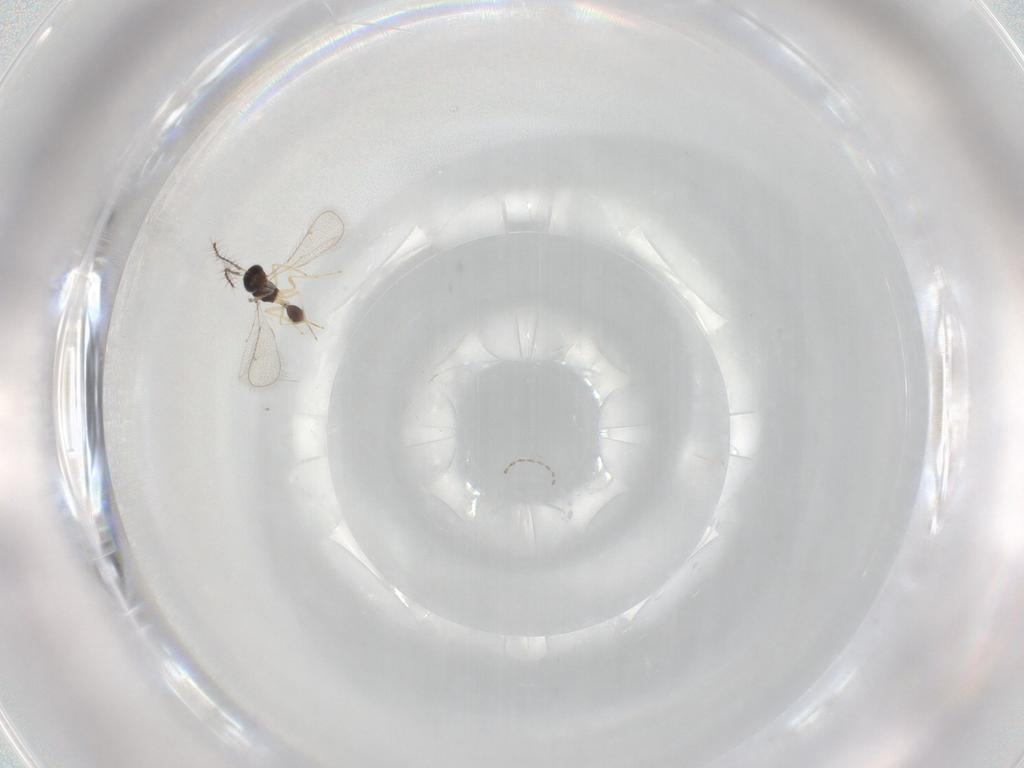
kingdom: Animalia
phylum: Arthropoda
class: Insecta
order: Hymenoptera
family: Diparidae
